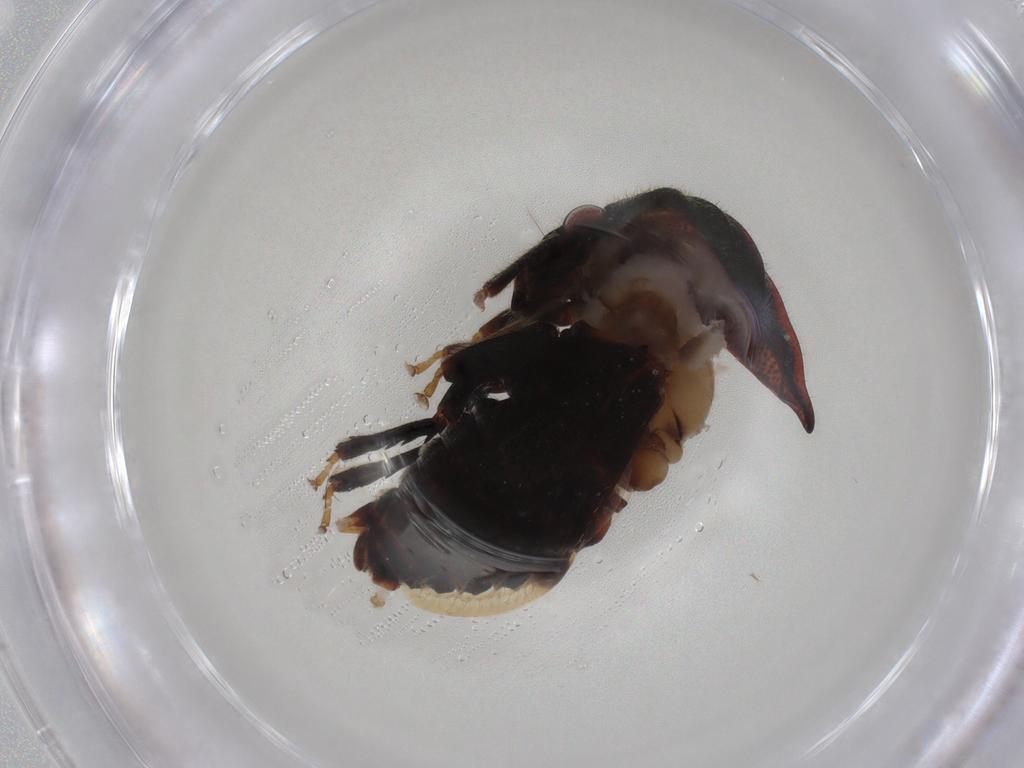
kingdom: Animalia
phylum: Arthropoda
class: Insecta
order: Hemiptera
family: Membracidae
